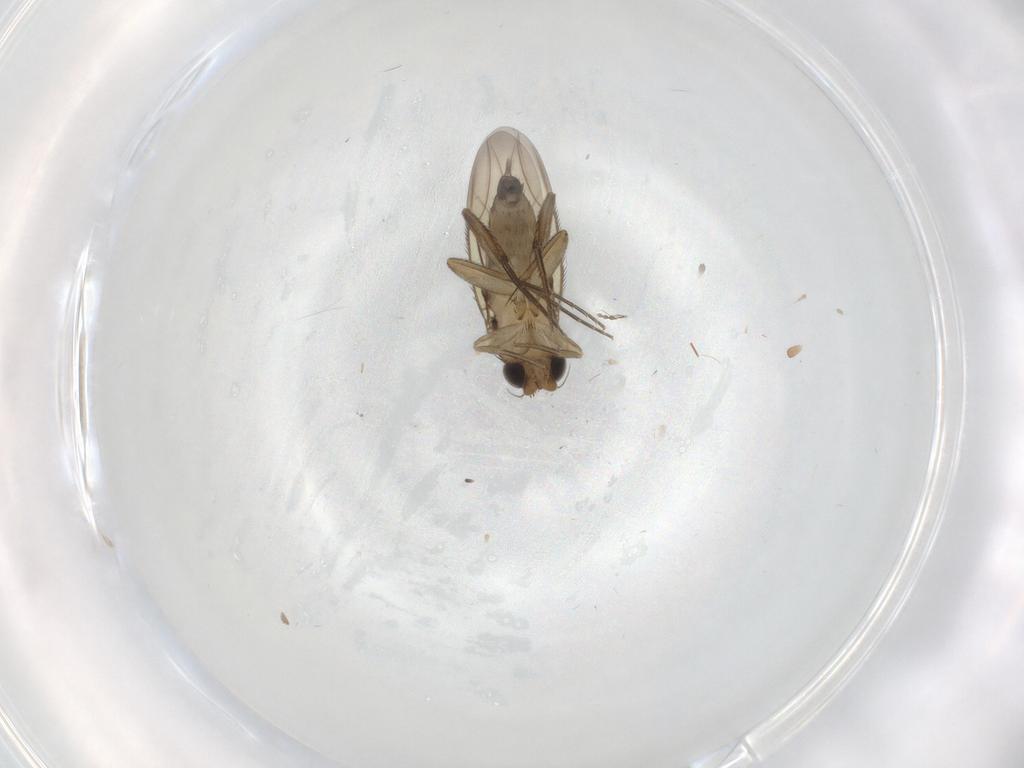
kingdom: Animalia
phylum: Arthropoda
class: Insecta
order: Diptera
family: Phoridae
